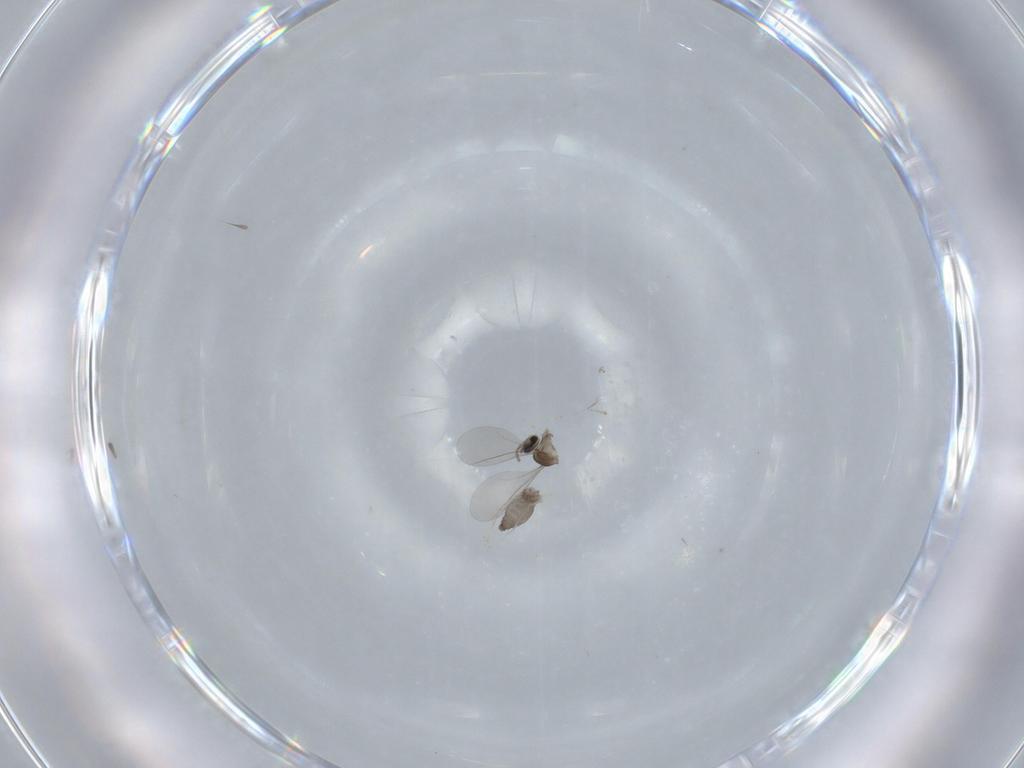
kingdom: Animalia
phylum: Arthropoda
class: Insecta
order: Diptera
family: Cecidomyiidae
